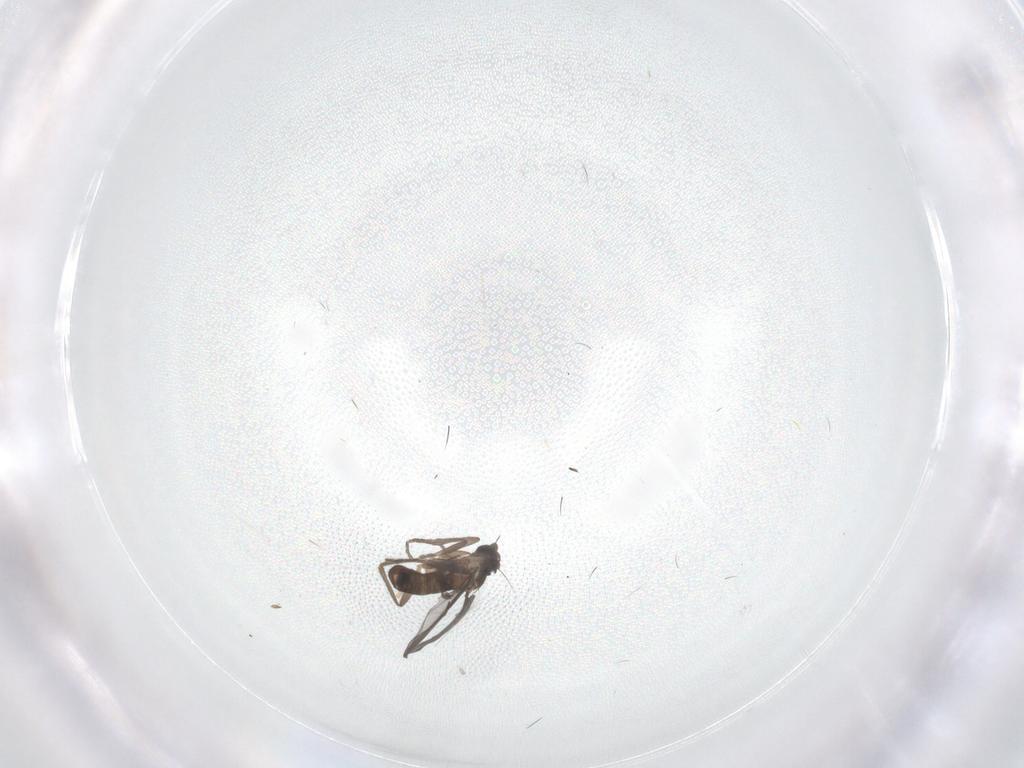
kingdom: Animalia
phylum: Arthropoda
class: Insecta
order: Diptera
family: Phoridae
